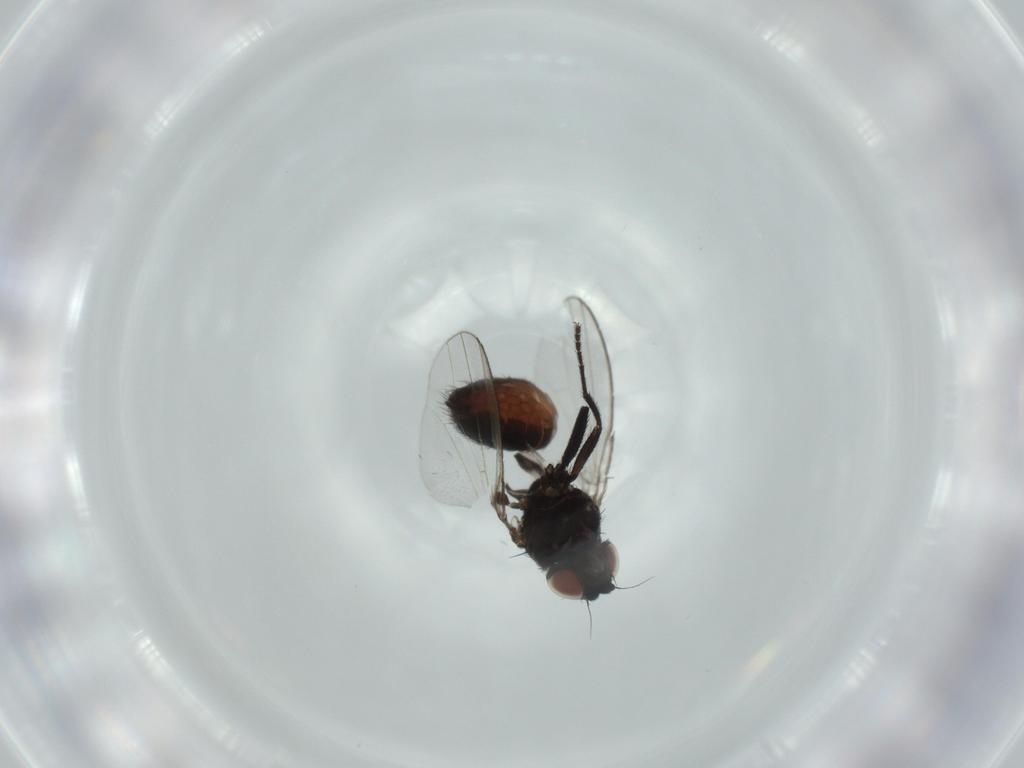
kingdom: Animalia
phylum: Arthropoda
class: Insecta
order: Diptera
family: Milichiidae
